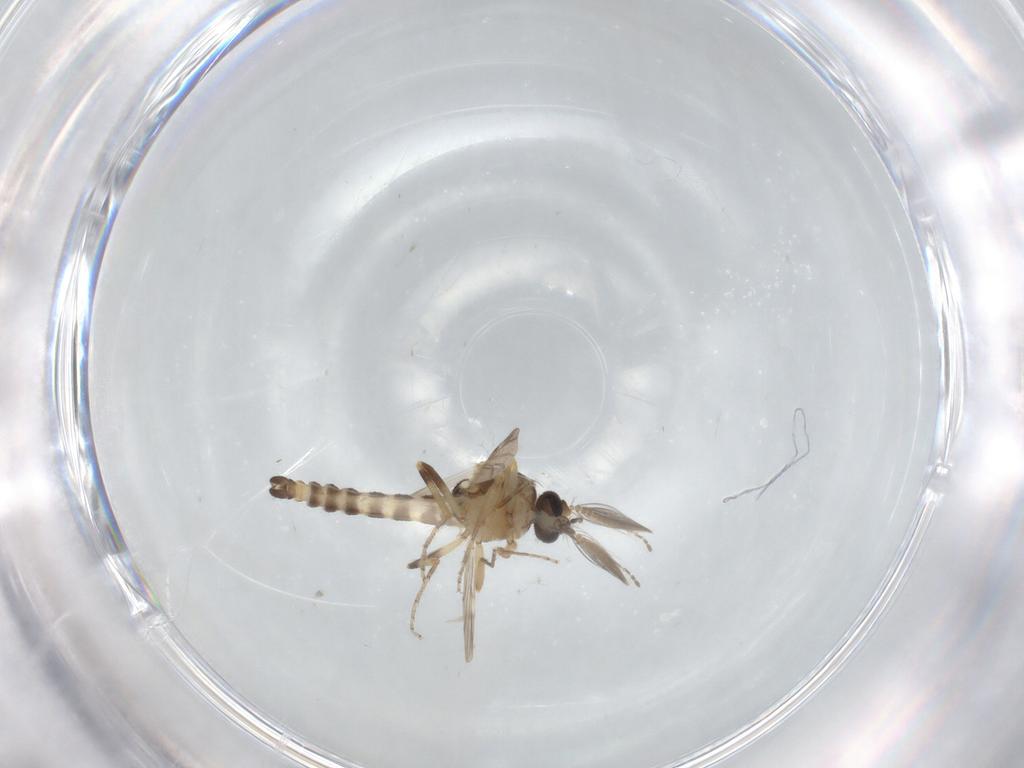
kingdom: Animalia
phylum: Arthropoda
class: Insecta
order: Diptera
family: Ceratopogonidae
